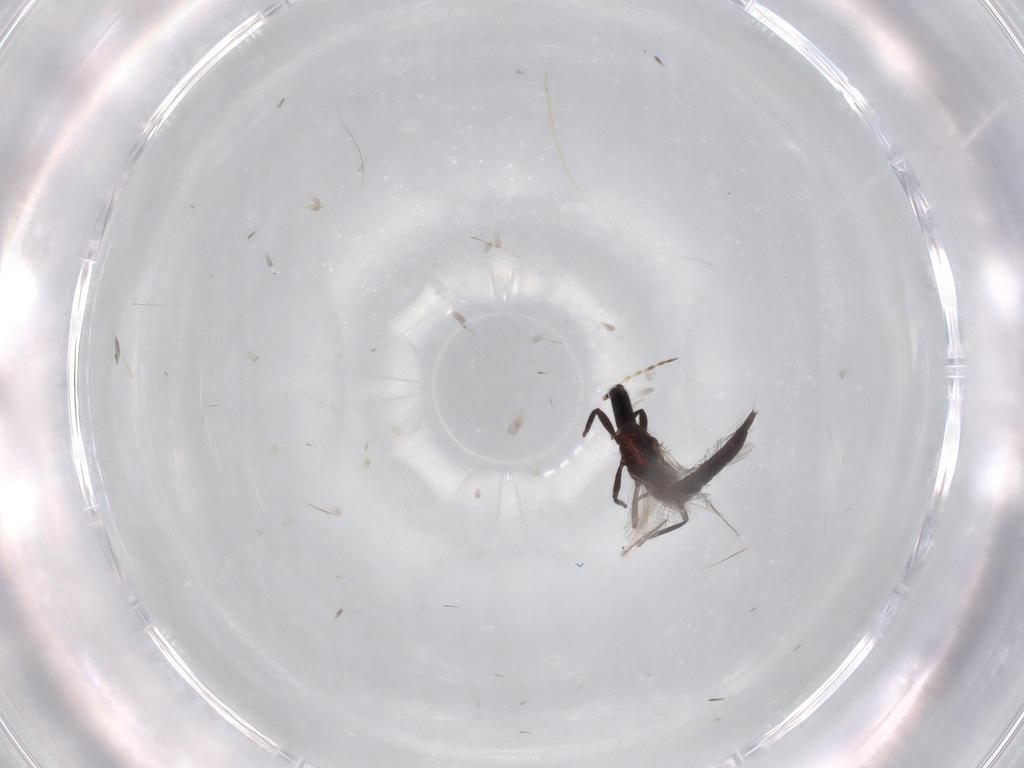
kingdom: Animalia
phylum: Arthropoda
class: Insecta
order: Thysanoptera
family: Phlaeothripidae
